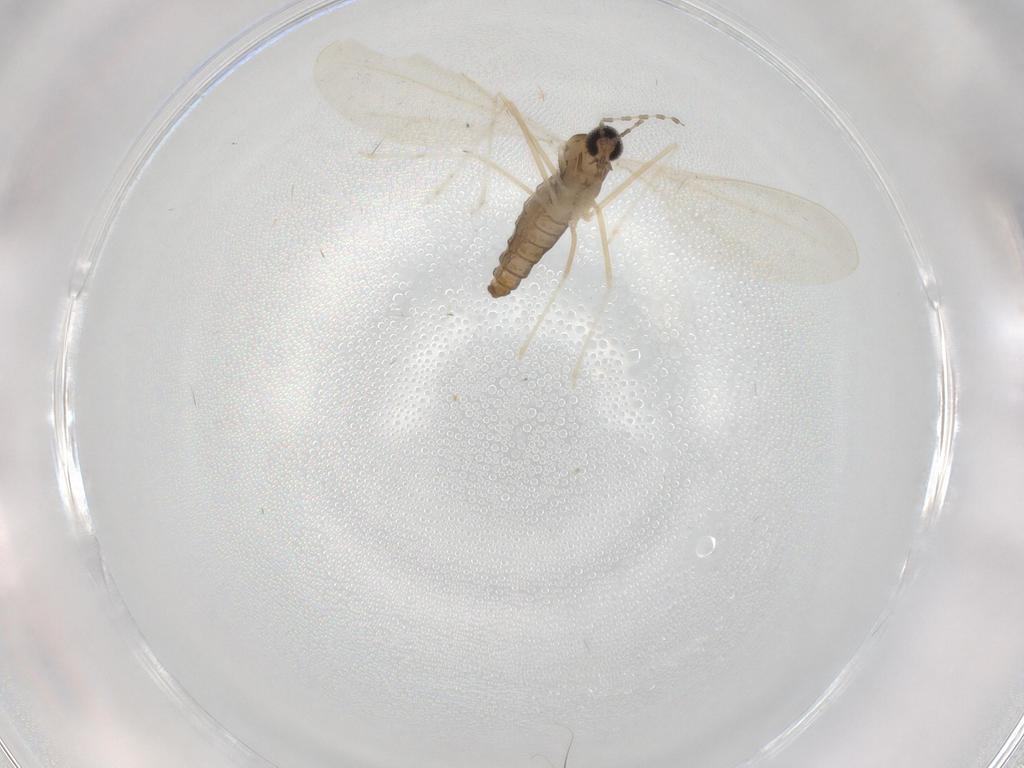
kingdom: Animalia
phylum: Arthropoda
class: Insecta
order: Diptera
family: Cecidomyiidae
